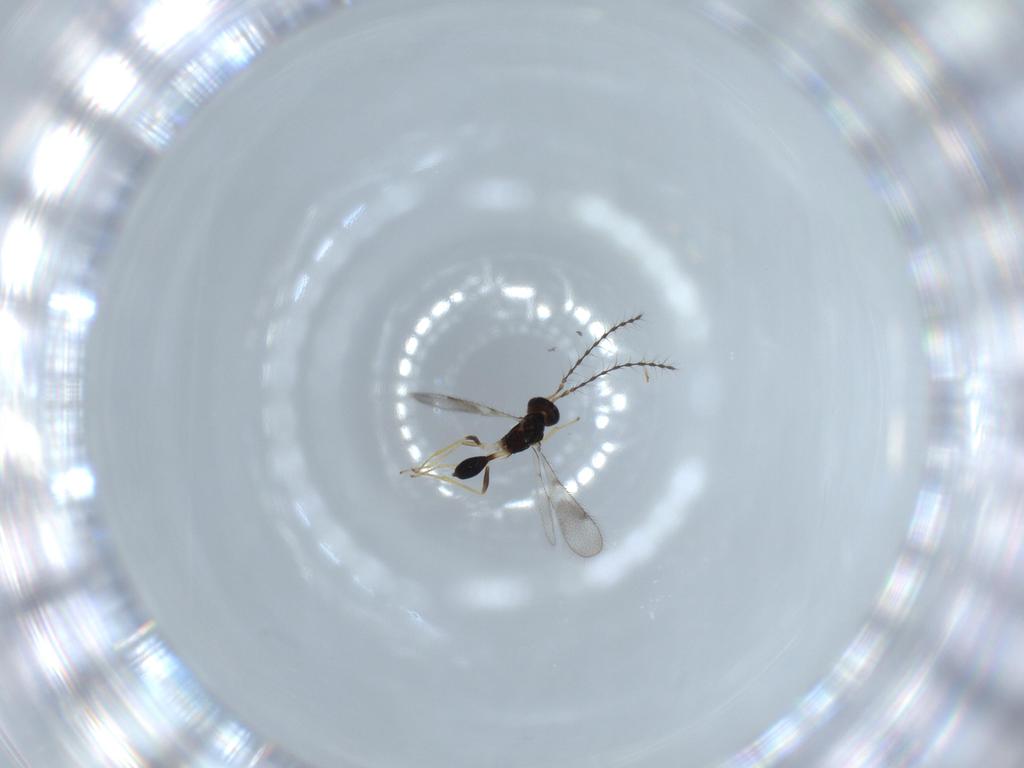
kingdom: Animalia
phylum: Arthropoda
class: Insecta
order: Hymenoptera
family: Diparidae
